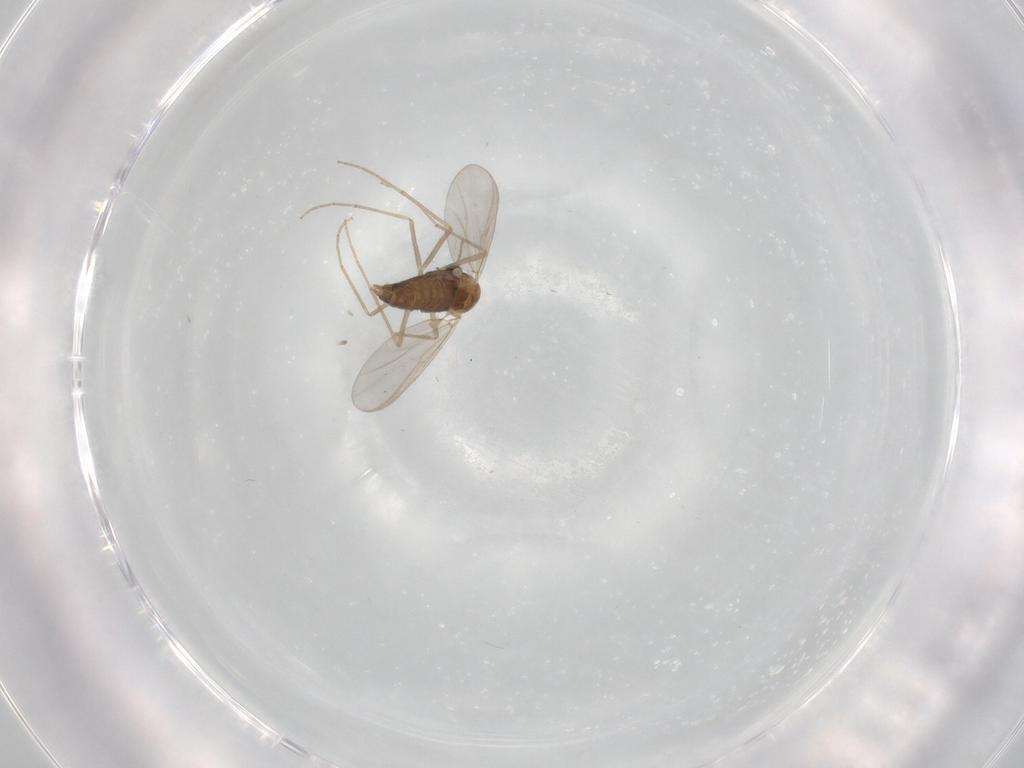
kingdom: Animalia
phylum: Arthropoda
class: Insecta
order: Diptera
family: Chironomidae
